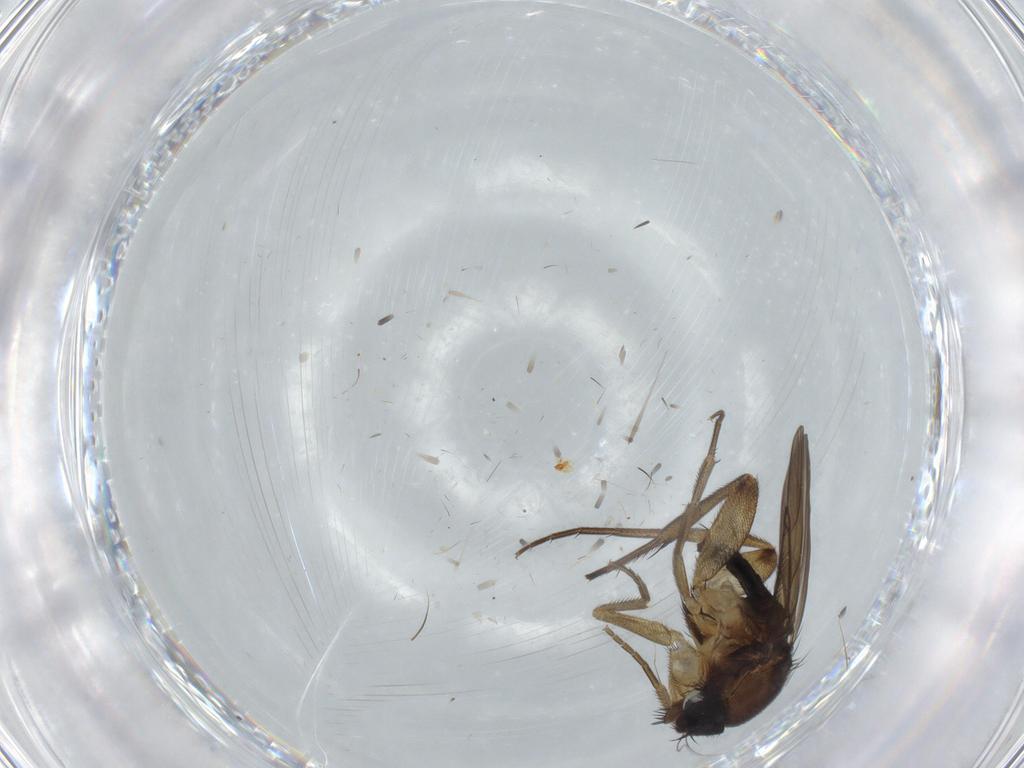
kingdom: Animalia
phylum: Arthropoda
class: Insecta
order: Diptera
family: Phoridae
